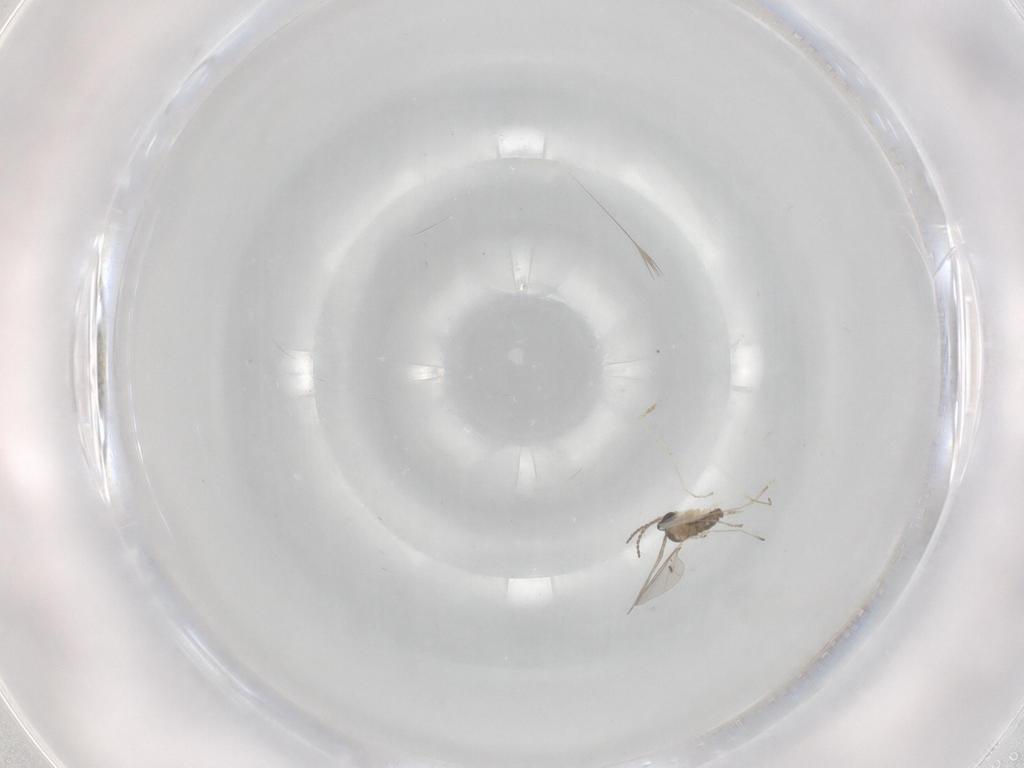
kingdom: Animalia
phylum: Arthropoda
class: Insecta
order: Diptera
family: Cecidomyiidae
